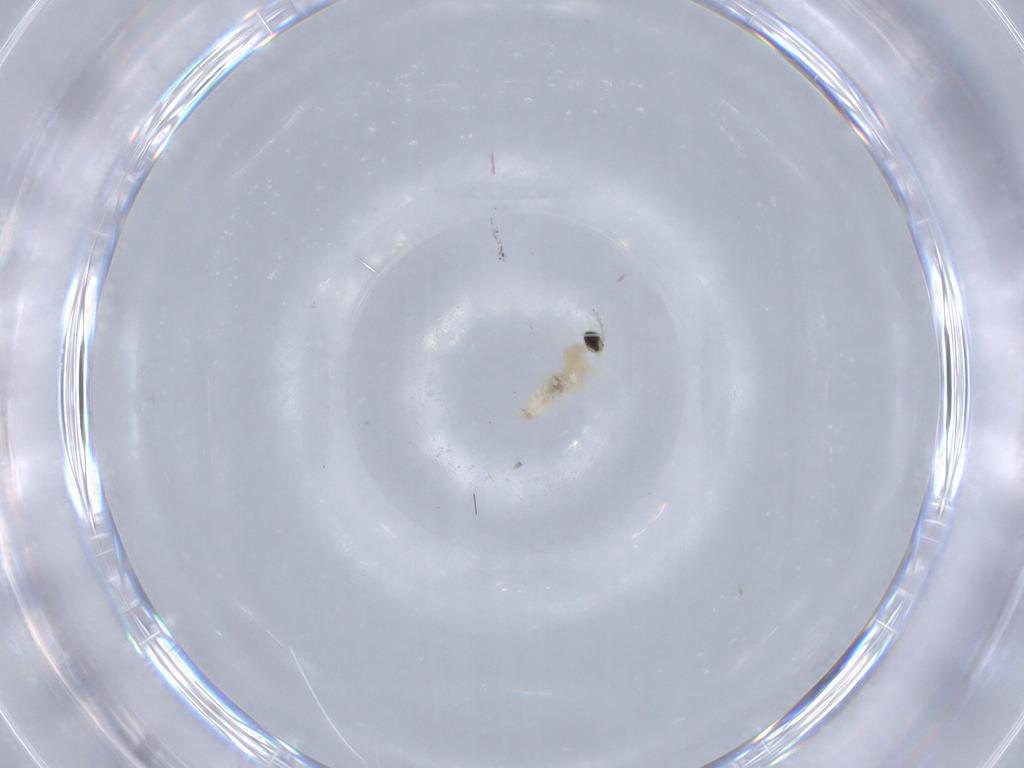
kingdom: Animalia
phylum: Arthropoda
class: Insecta
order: Diptera
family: Cecidomyiidae
